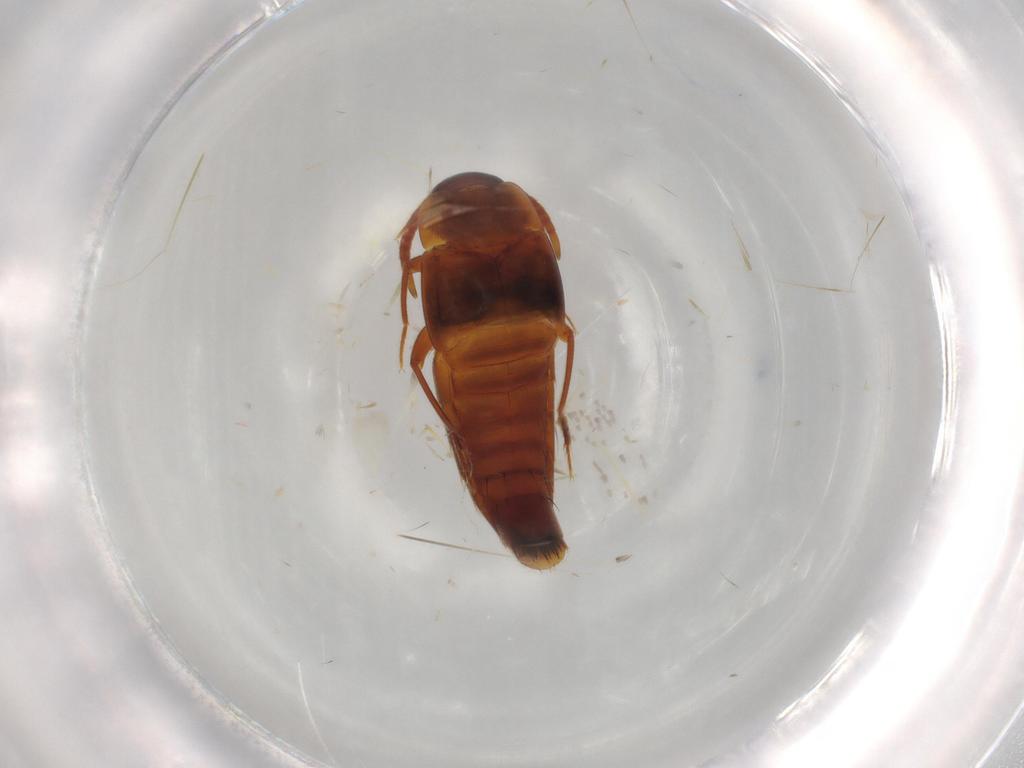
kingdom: Animalia
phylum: Arthropoda
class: Insecta
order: Coleoptera
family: Staphylinidae
